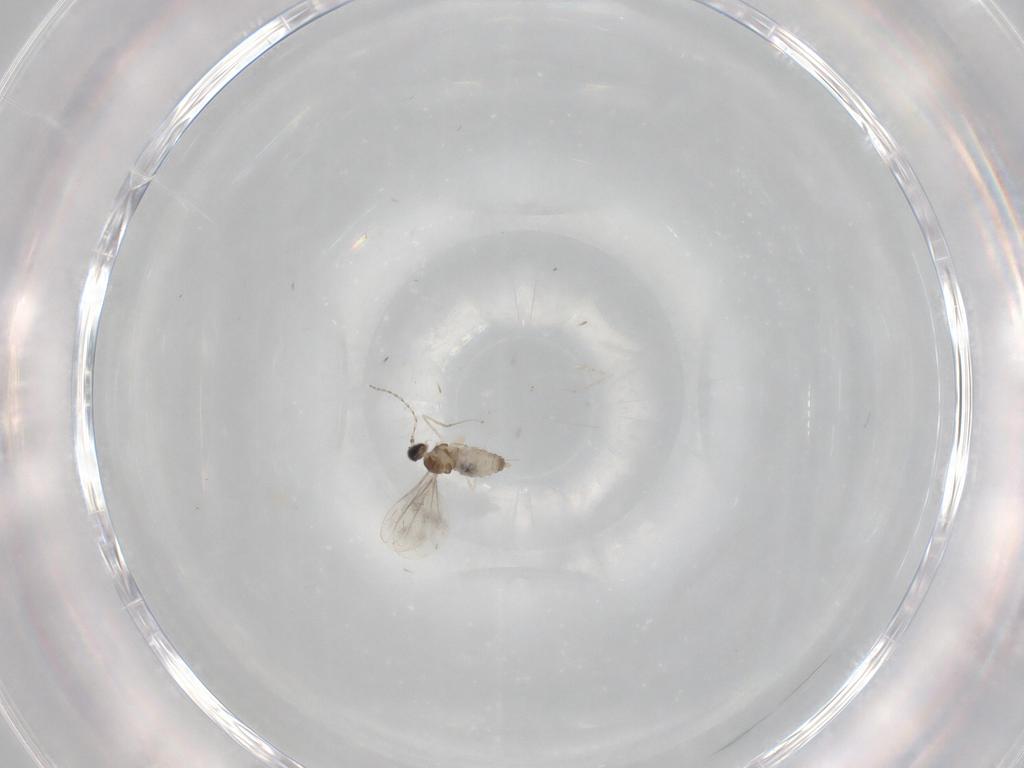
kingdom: Animalia
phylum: Arthropoda
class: Insecta
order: Diptera
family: Cecidomyiidae
